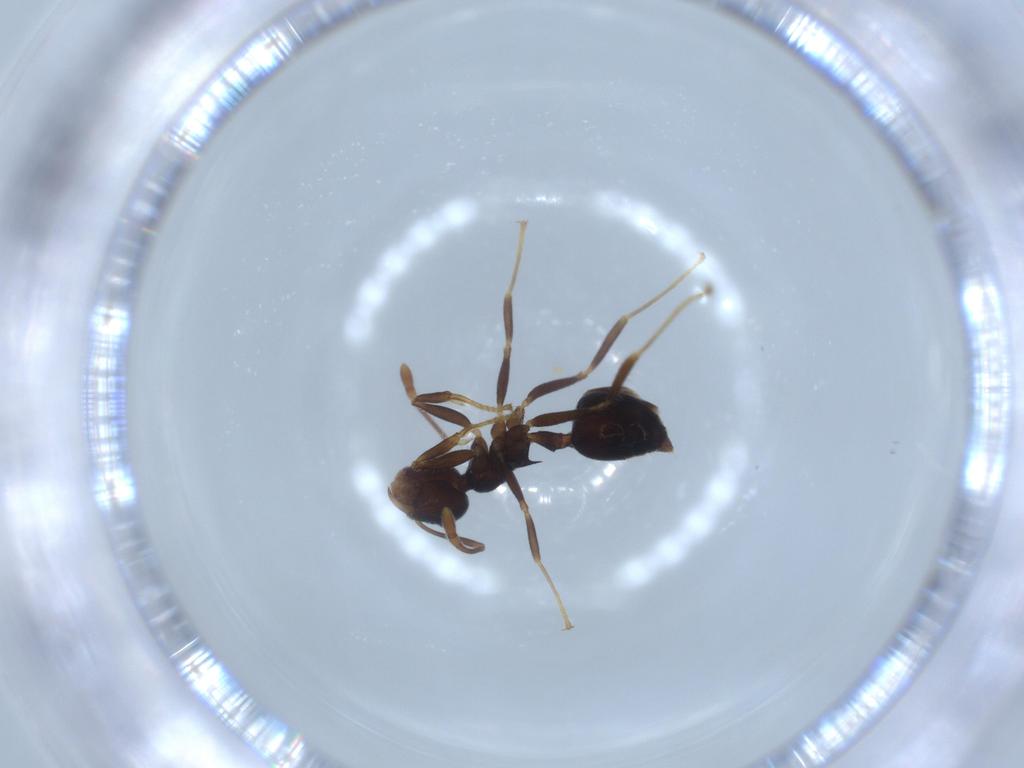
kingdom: Animalia
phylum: Arthropoda
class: Insecta
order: Hymenoptera
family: Formicidae
